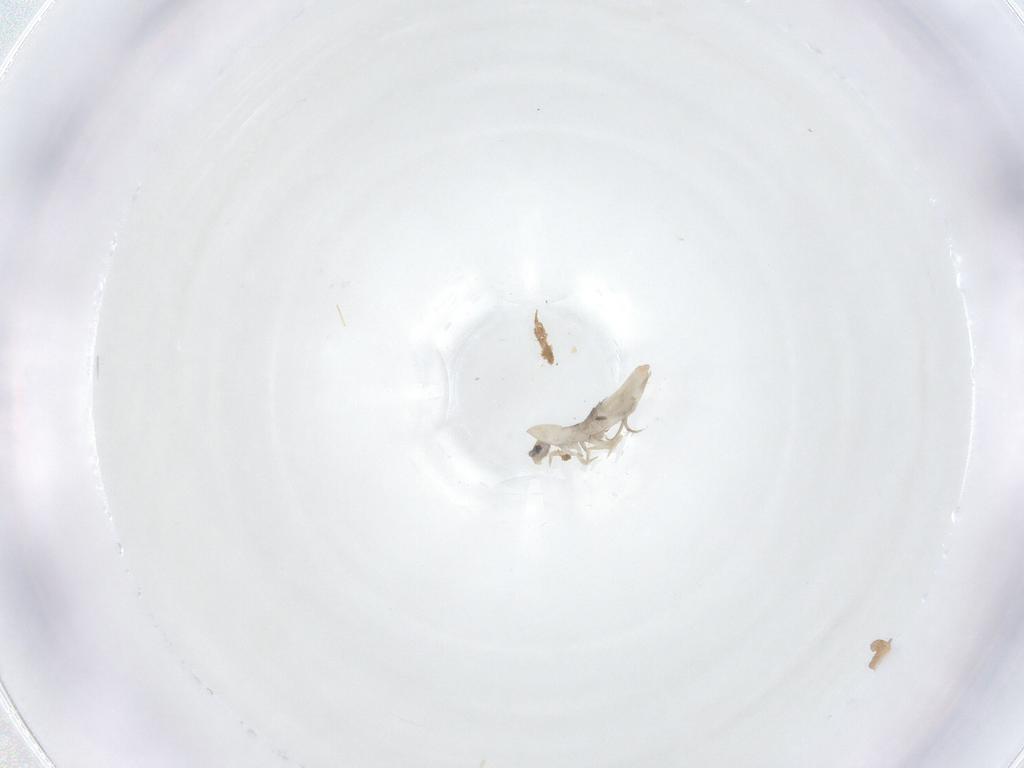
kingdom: Animalia
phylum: Arthropoda
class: Collembola
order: Entomobryomorpha
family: Entomobryidae
